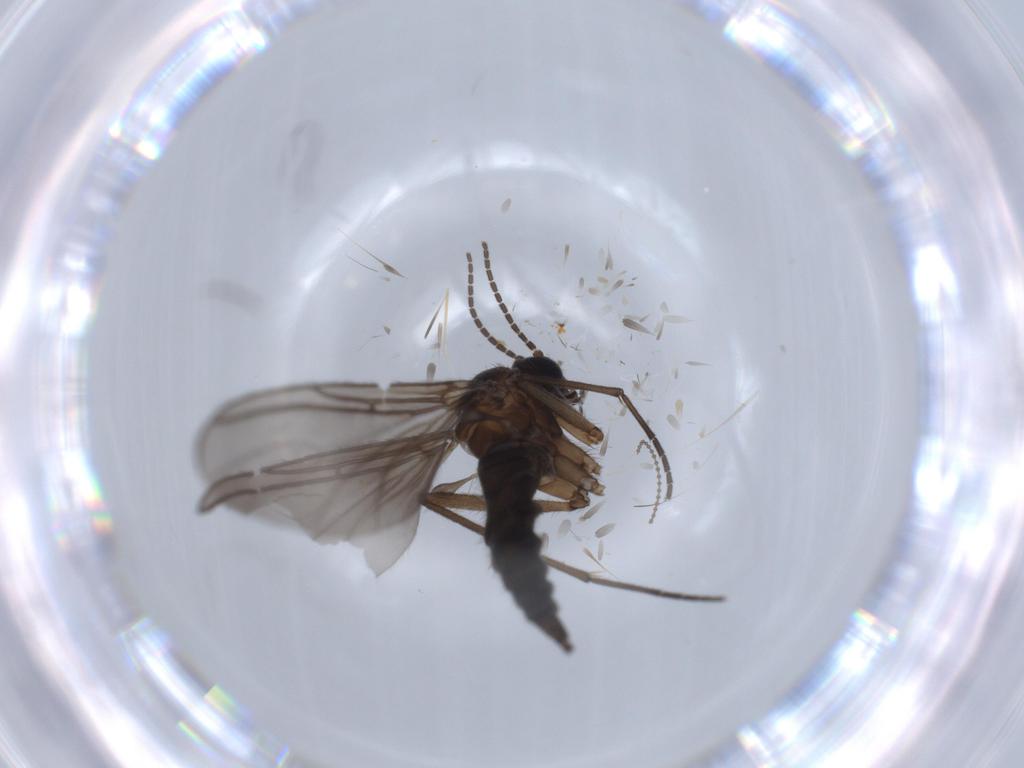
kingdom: Animalia
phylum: Arthropoda
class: Insecta
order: Diptera
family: Sciaridae
